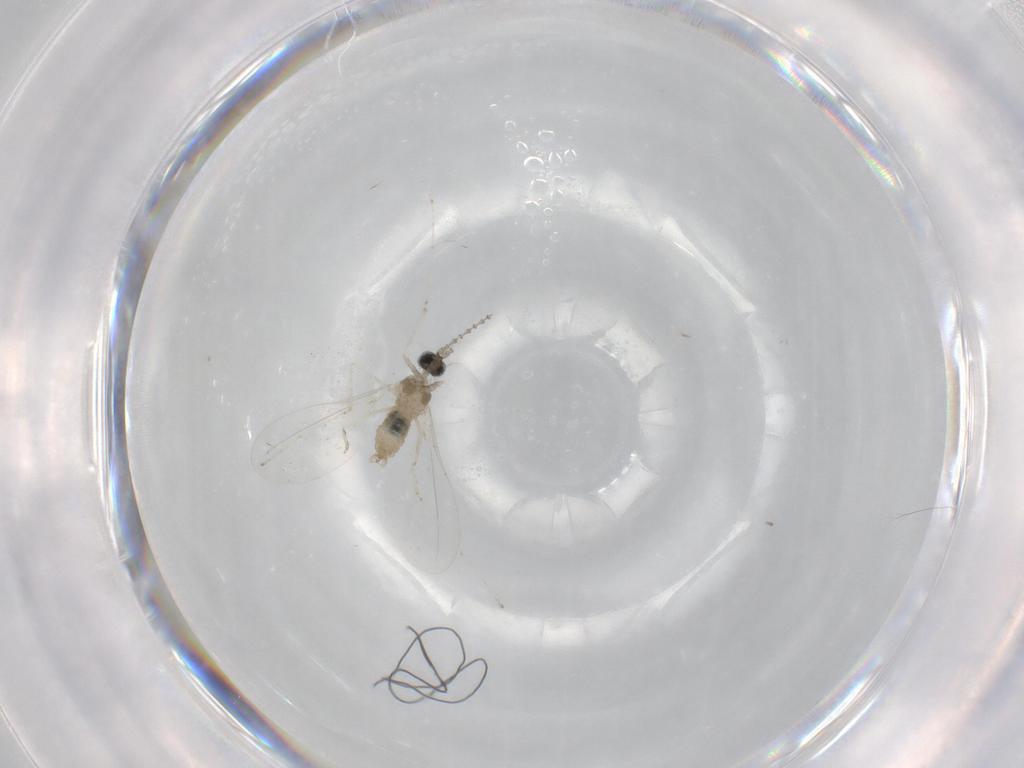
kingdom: Animalia
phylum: Arthropoda
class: Insecta
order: Diptera
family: Cecidomyiidae
